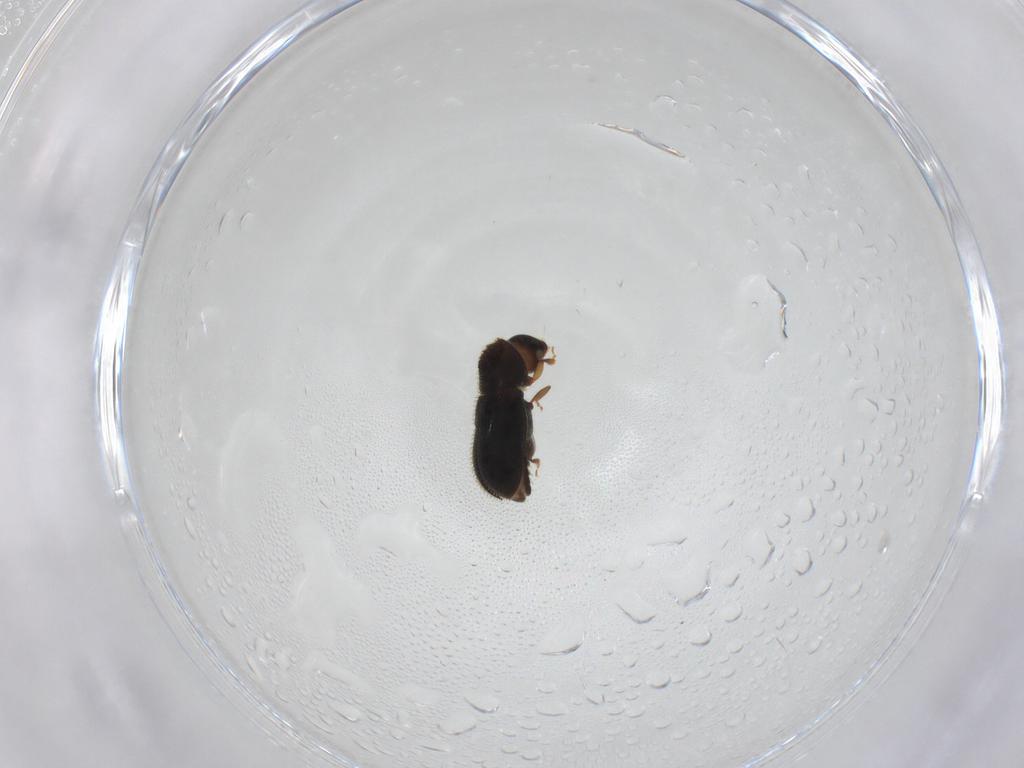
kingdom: Animalia
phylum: Arthropoda
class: Insecta
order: Coleoptera
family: Curculionidae
